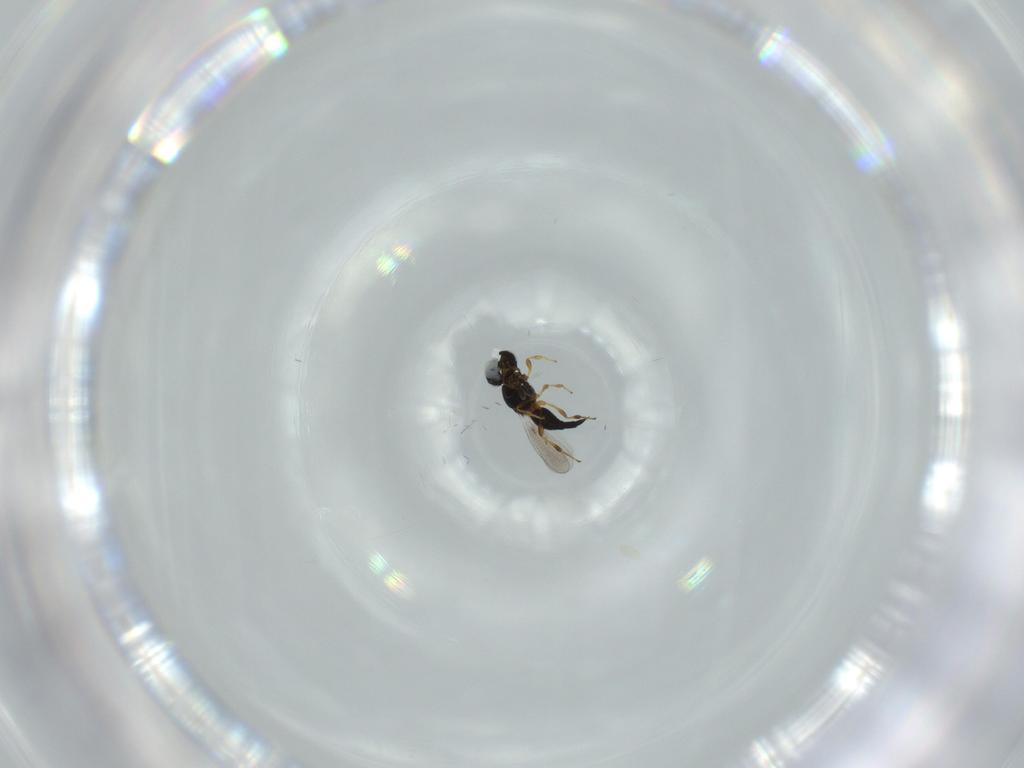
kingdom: Animalia
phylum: Arthropoda
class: Insecta
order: Hymenoptera
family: Platygastridae
